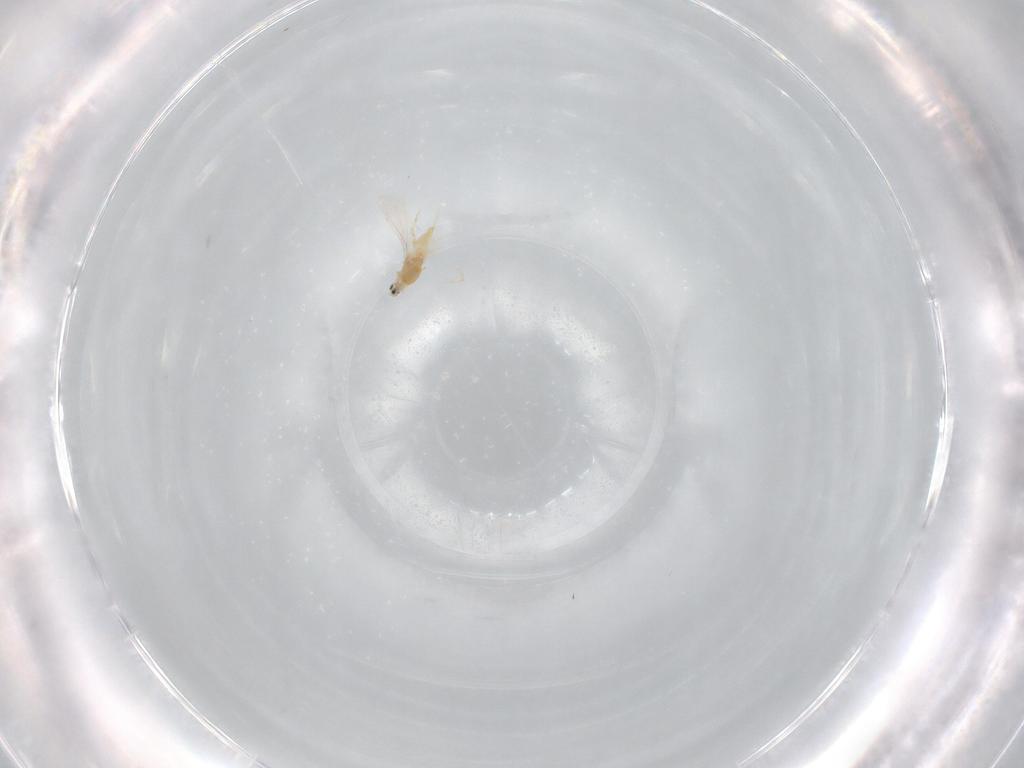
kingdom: Animalia
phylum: Arthropoda
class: Insecta
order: Hemiptera
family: Diaspididae
